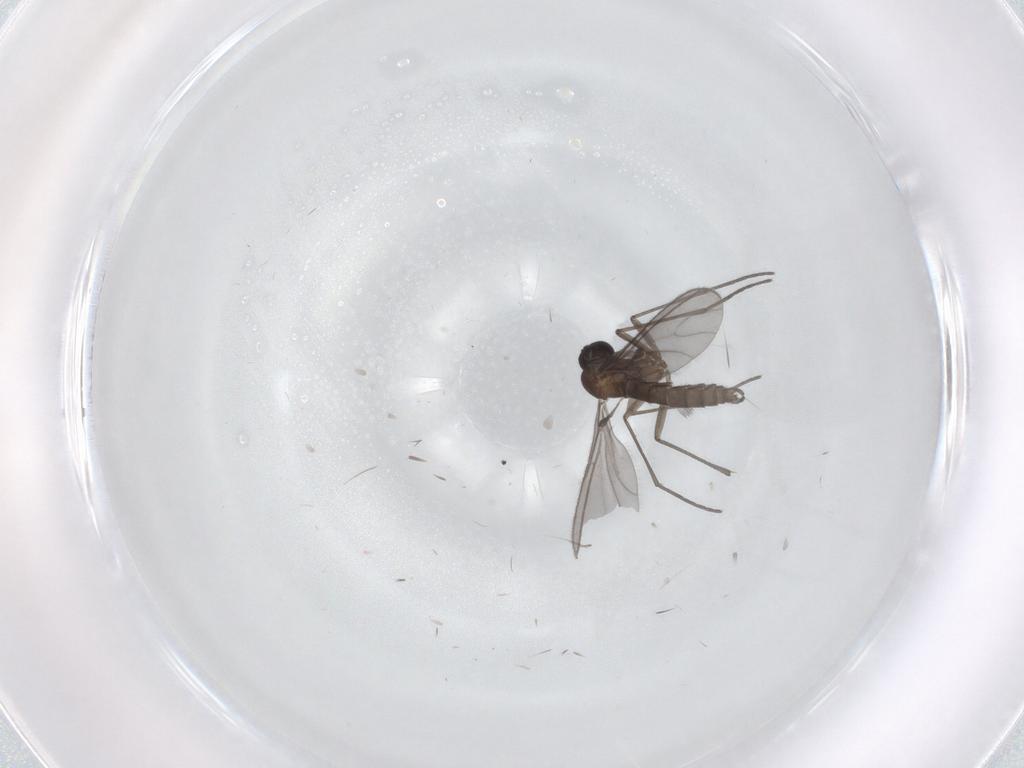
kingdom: Animalia
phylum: Arthropoda
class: Insecta
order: Diptera
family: Sciaridae
